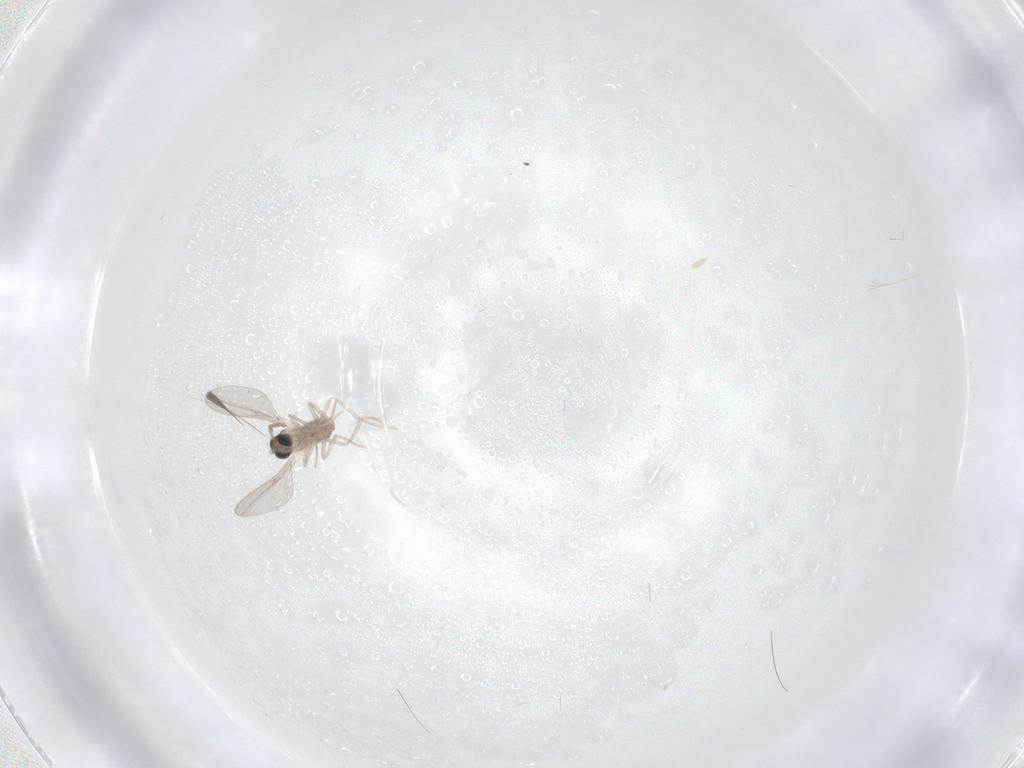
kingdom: Animalia
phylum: Arthropoda
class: Insecta
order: Diptera
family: Cecidomyiidae
